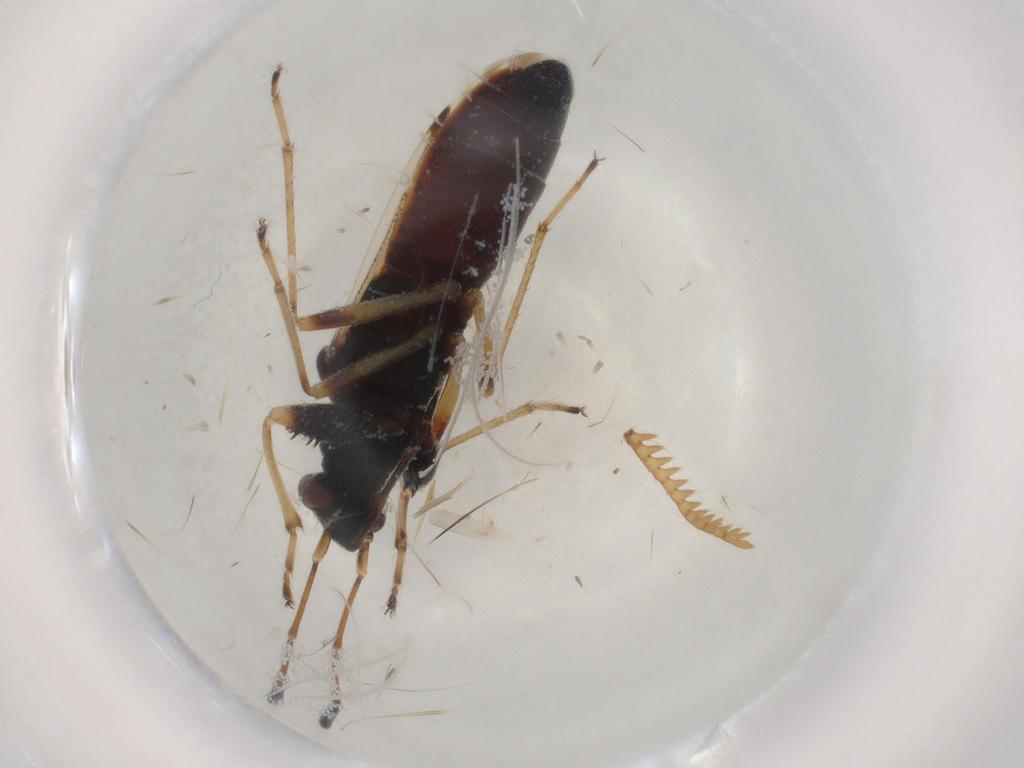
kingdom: Animalia
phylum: Arthropoda
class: Insecta
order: Hemiptera
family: Rhyparochromidae
